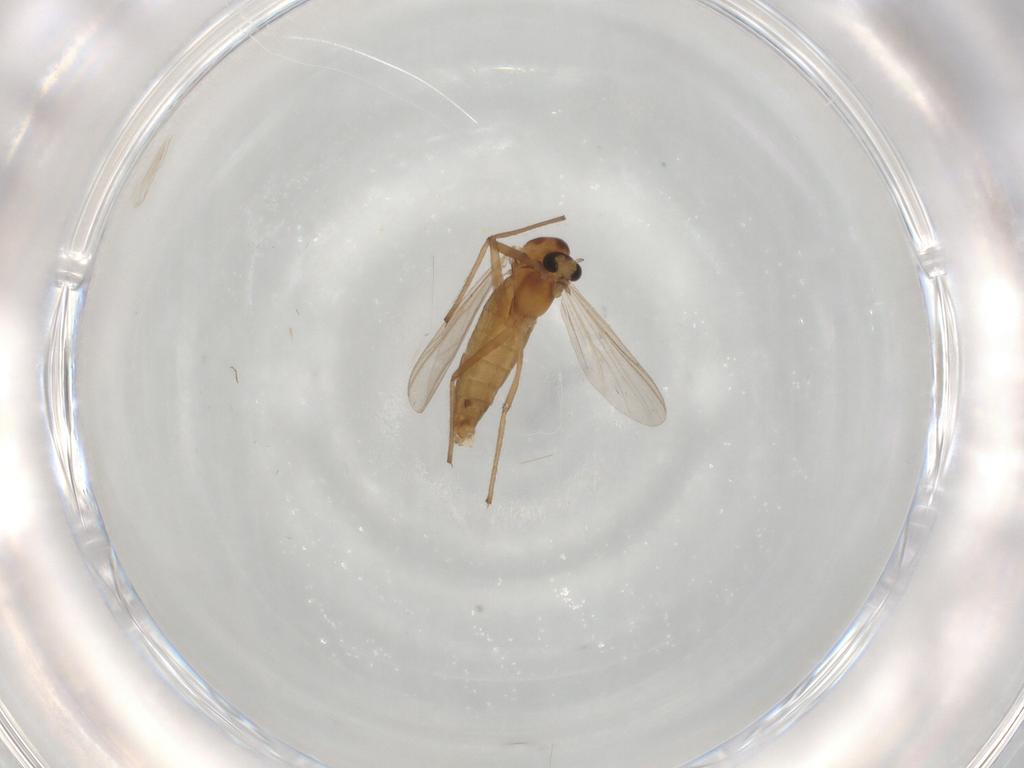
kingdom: Animalia
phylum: Arthropoda
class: Insecta
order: Diptera
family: Chironomidae
